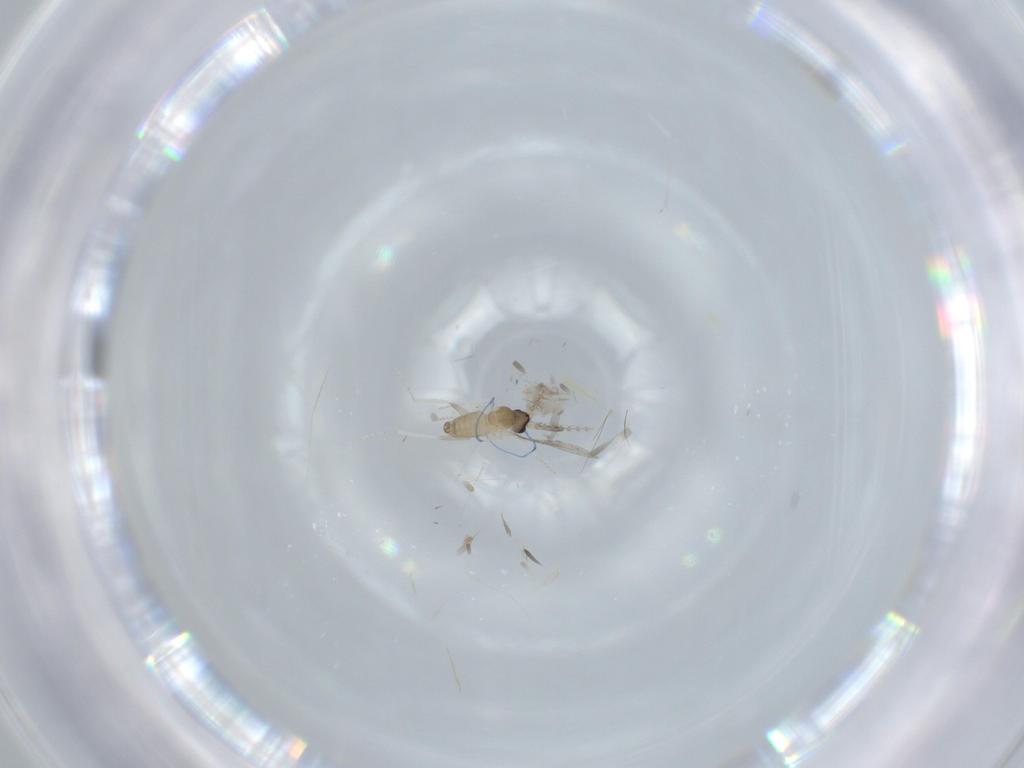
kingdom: Animalia
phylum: Arthropoda
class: Insecta
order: Diptera
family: Cecidomyiidae
